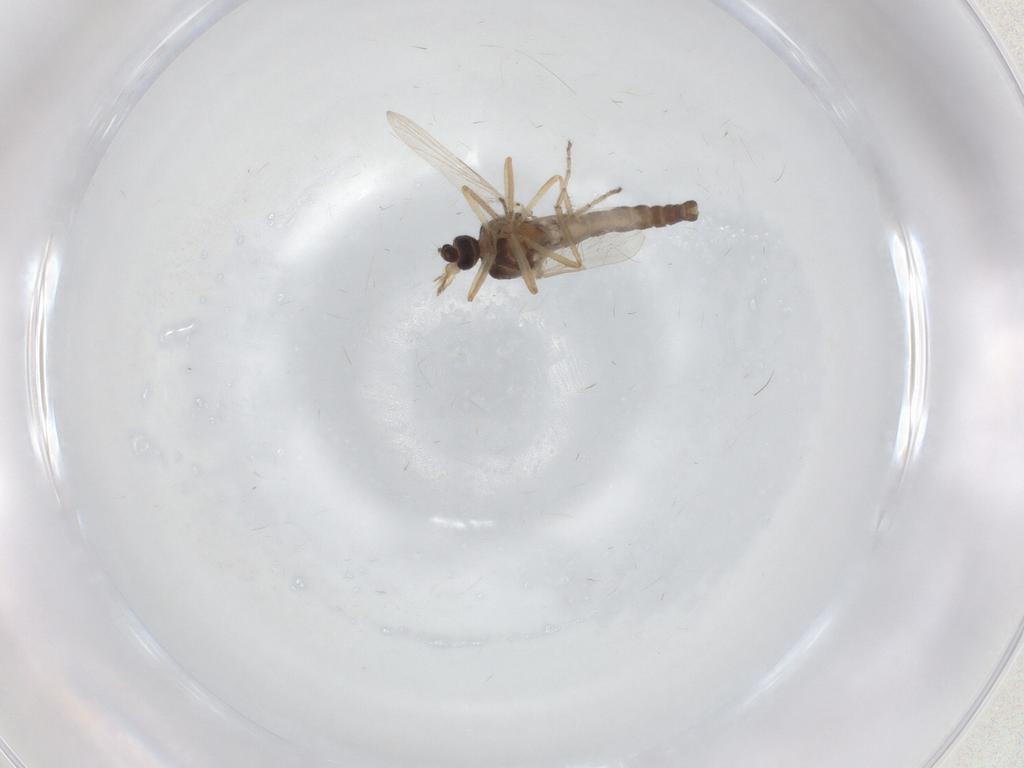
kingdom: Animalia
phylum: Arthropoda
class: Insecta
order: Diptera
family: Ceratopogonidae
